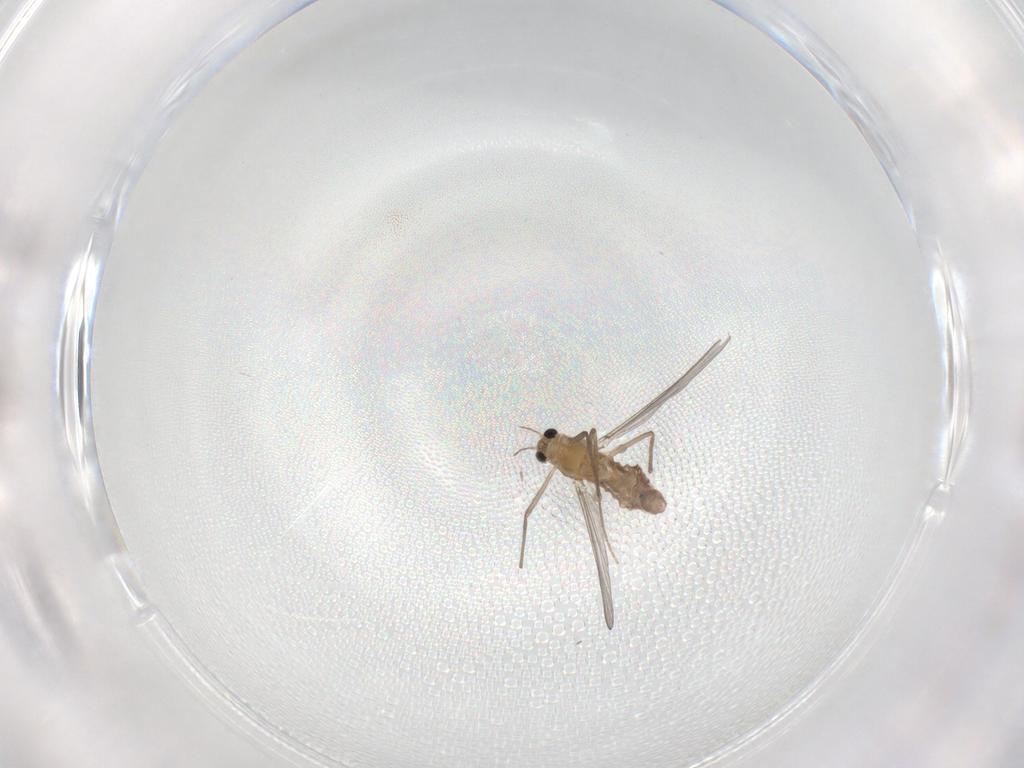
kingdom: Animalia
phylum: Arthropoda
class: Insecta
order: Diptera
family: Chironomidae
